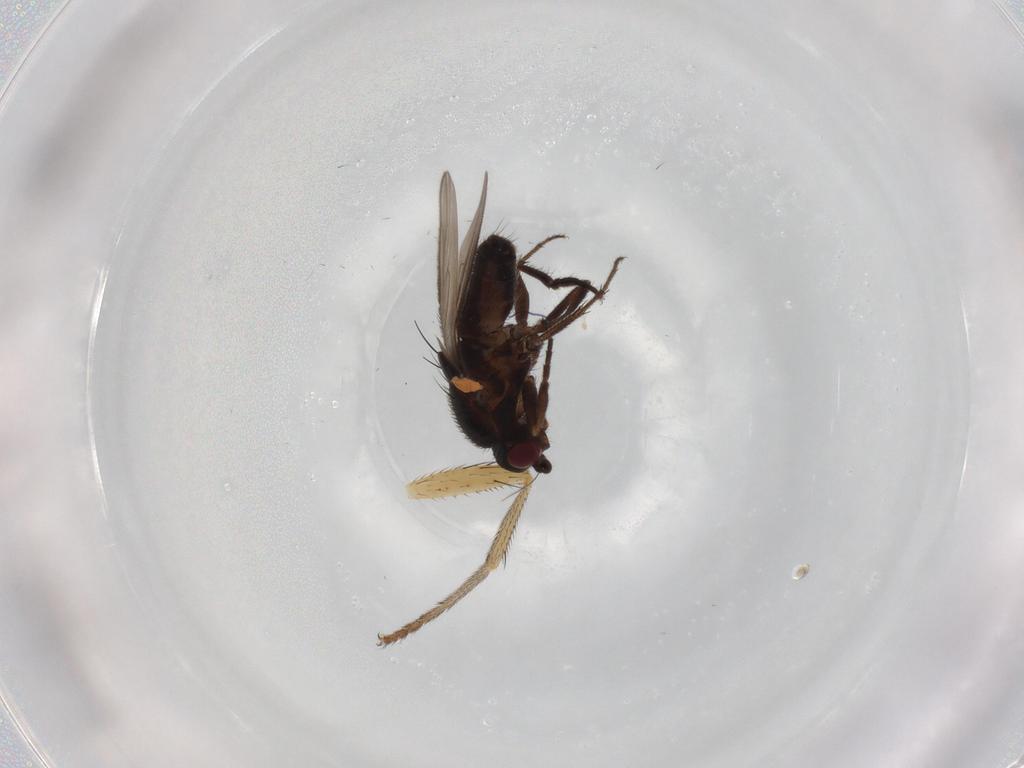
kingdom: Animalia
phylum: Arthropoda
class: Insecta
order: Diptera
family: Sphaeroceridae
